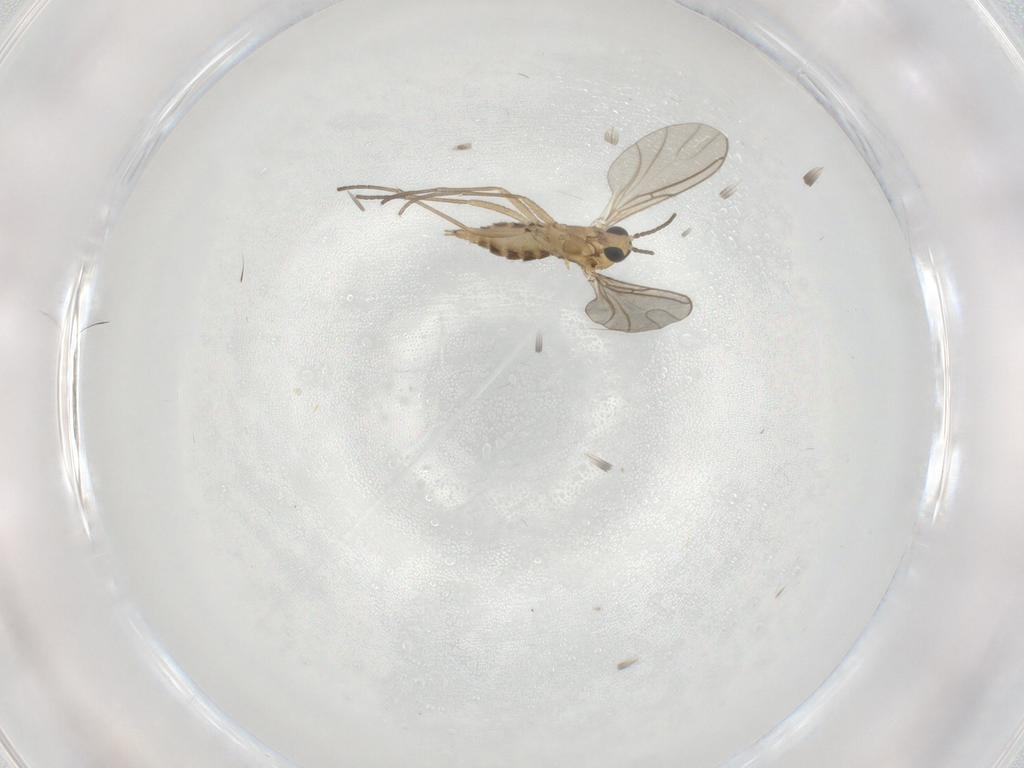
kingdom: Animalia
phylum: Arthropoda
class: Insecta
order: Diptera
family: Sciaridae
